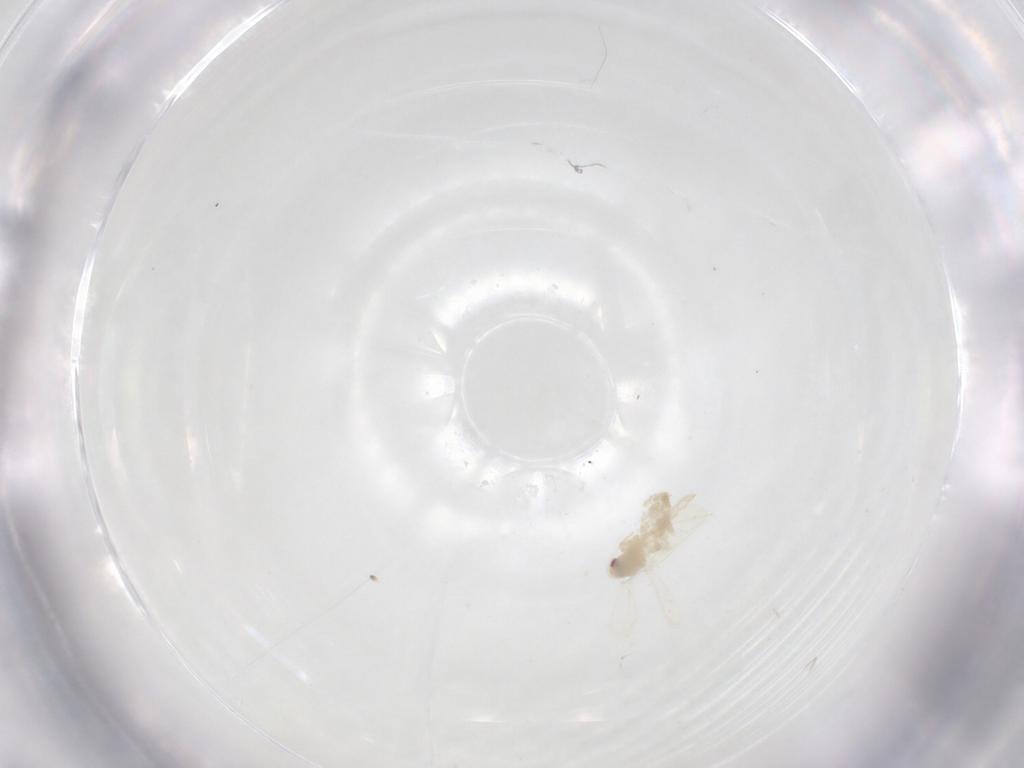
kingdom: Animalia
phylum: Arthropoda
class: Insecta
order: Hemiptera
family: Aleyrodidae
